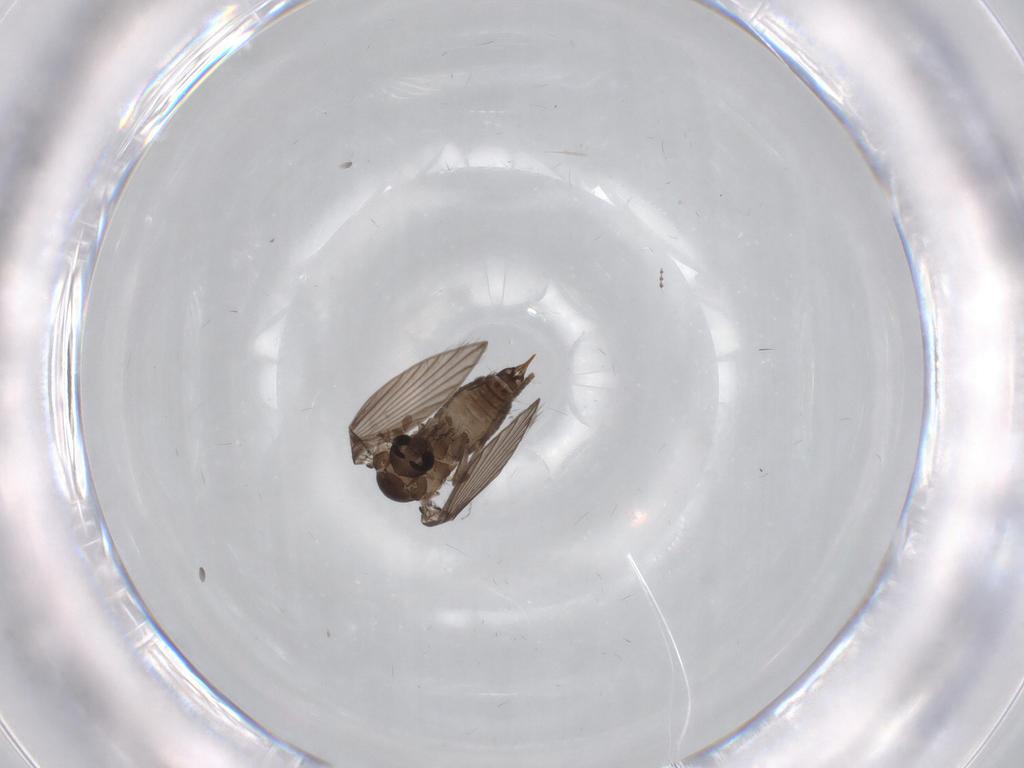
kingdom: Animalia
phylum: Arthropoda
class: Insecta
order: Diptera
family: Psychodidae
